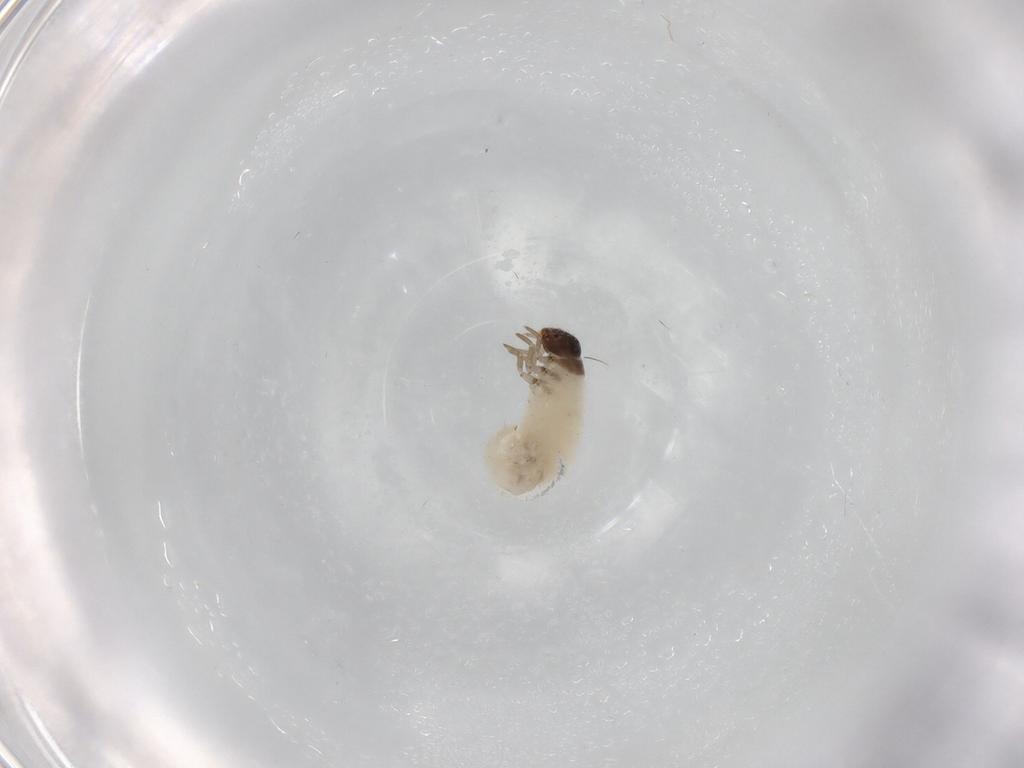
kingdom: Animalia
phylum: Arthropoda
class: Insecta
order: Coleoptera
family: Chrysomelidae
